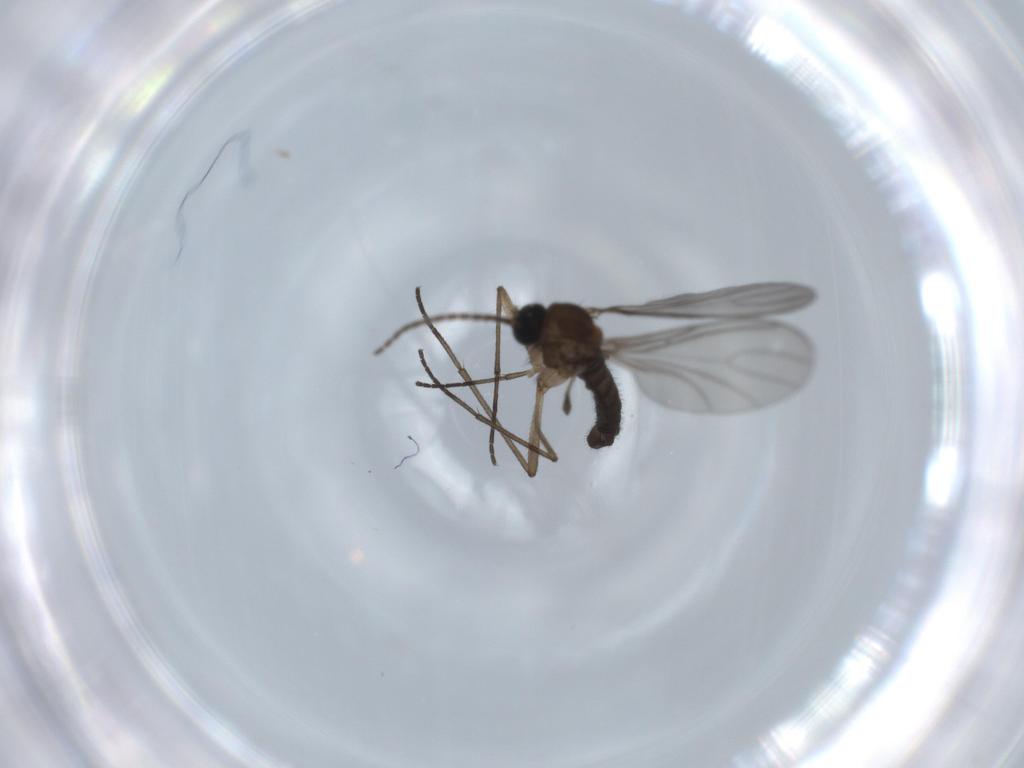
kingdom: Animalia
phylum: Arthropoda
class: Insecta
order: Diptera
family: Sciaridae
